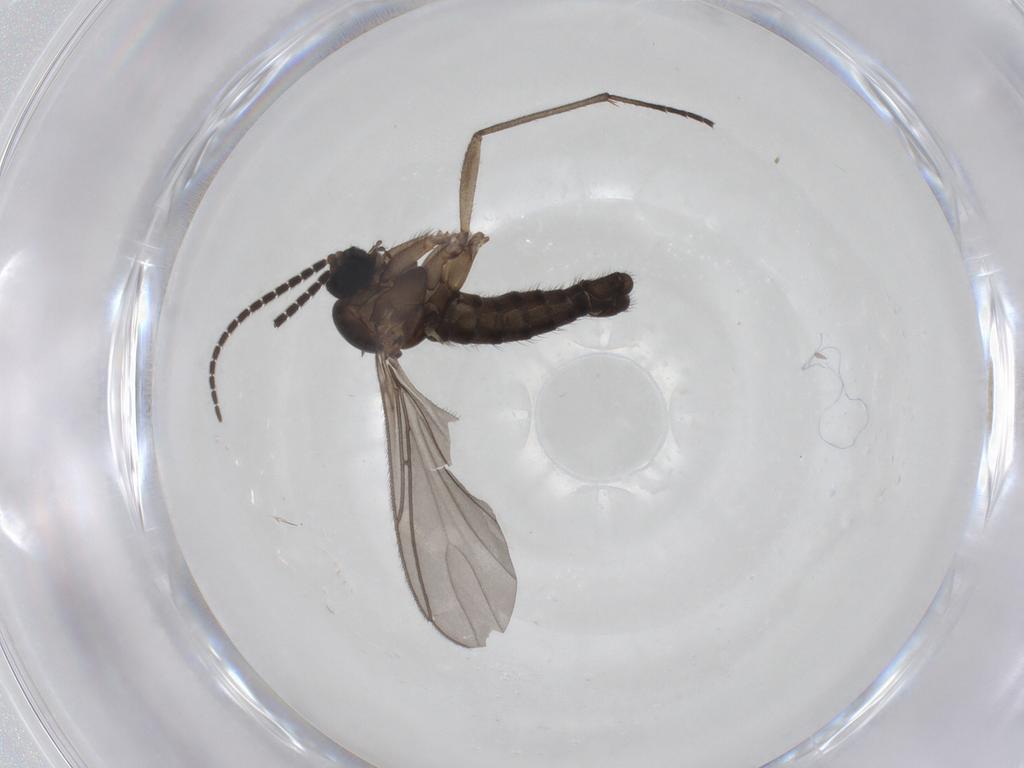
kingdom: Animalia
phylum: Arthropoda
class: Insecta
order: Diptera
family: Sciaridae
